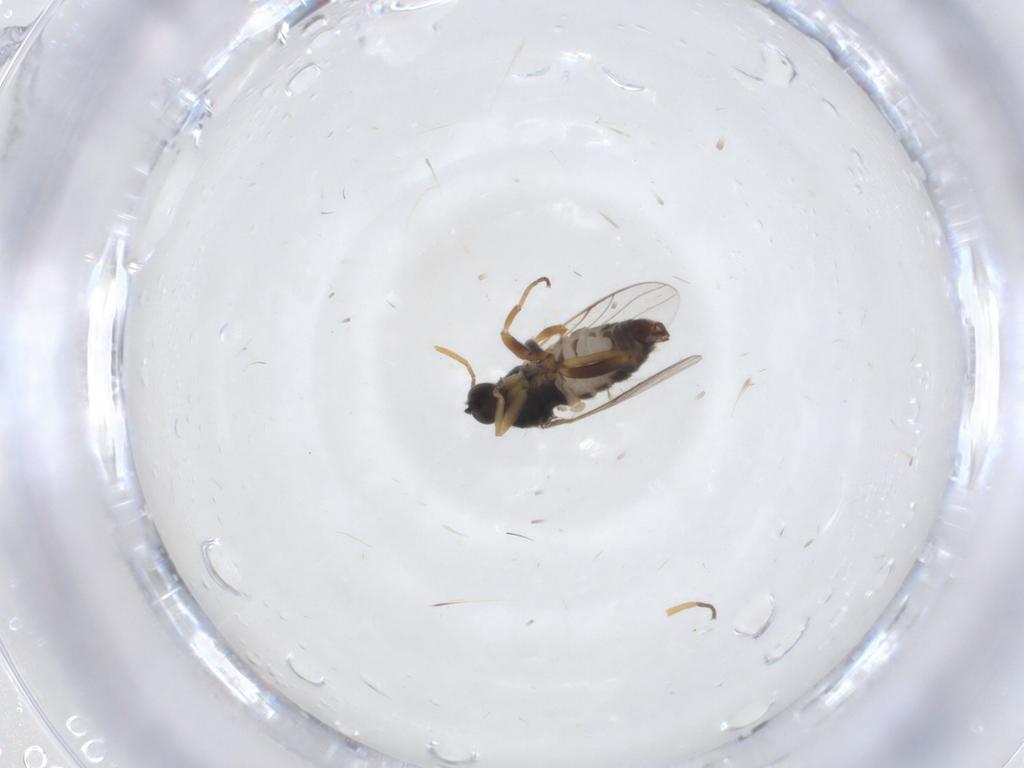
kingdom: Animalia
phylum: Arthropoda
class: Insecta
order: Diptera
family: Hybotidae
